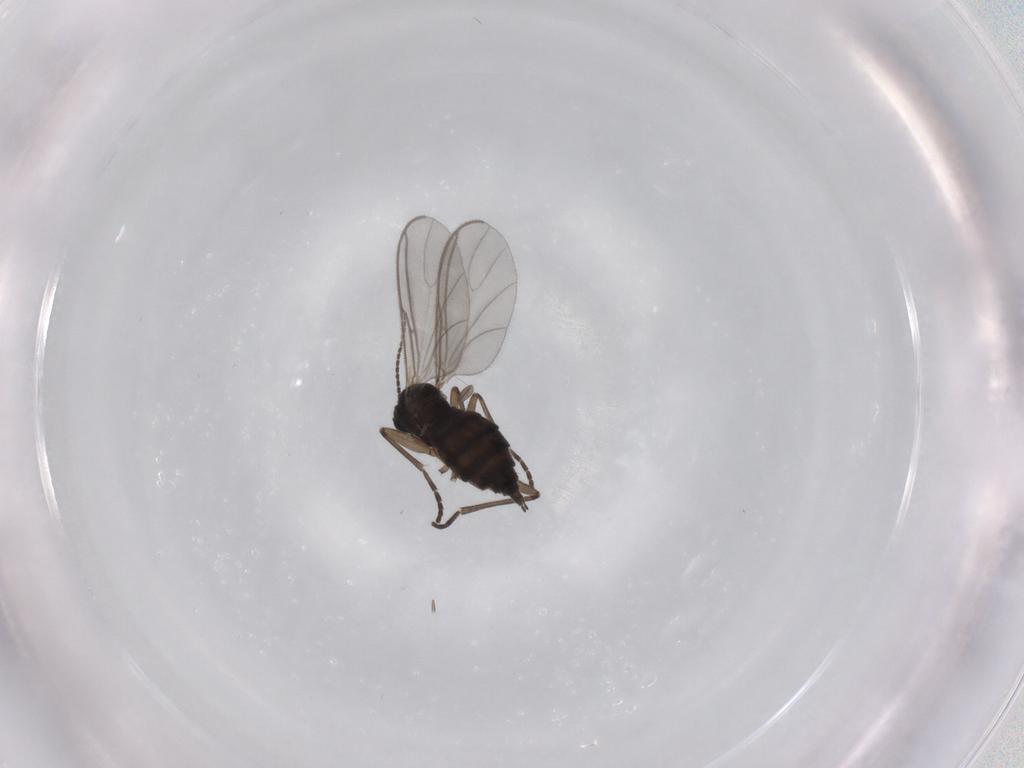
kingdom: Animalia
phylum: Arthropoda
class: Insecta
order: Diptera
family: Sciaridae
